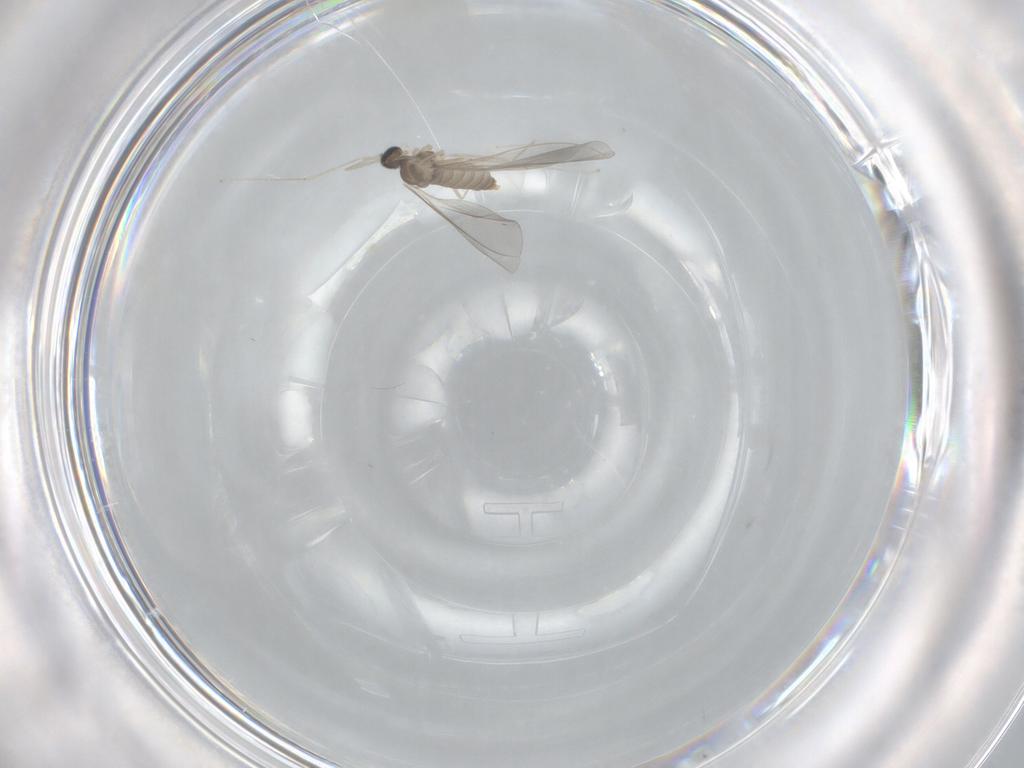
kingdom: Animalia
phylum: Arthropoda
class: Insecta
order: Diptera
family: Cecidomyiidae
